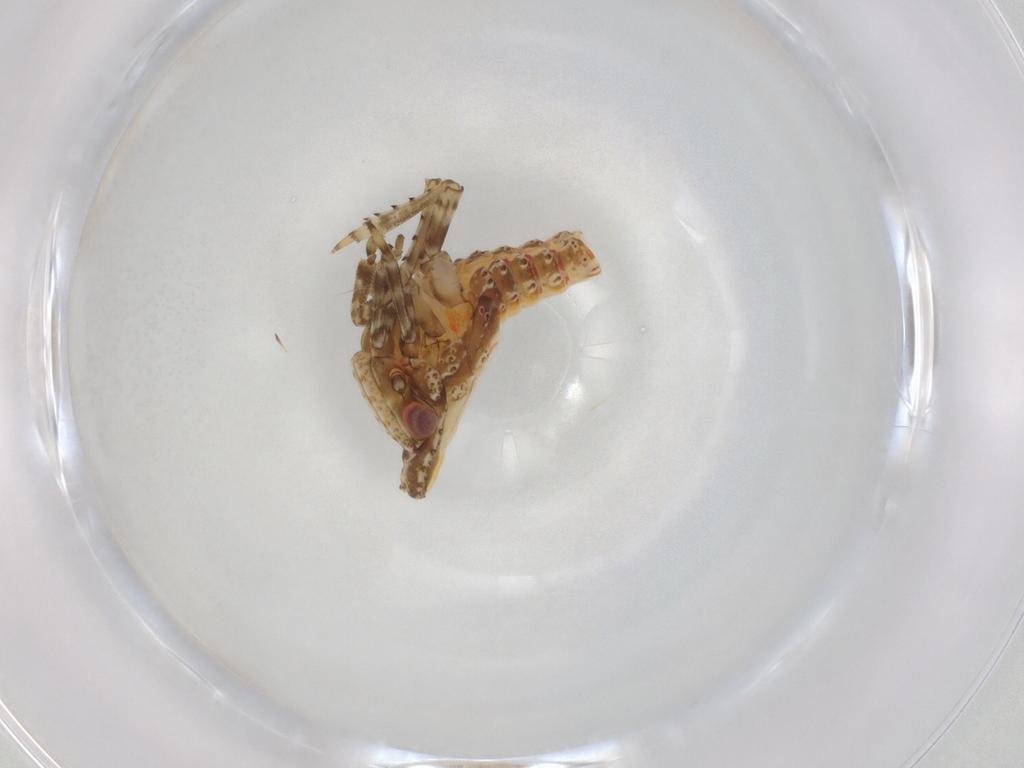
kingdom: Animalia
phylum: Arthropoda
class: Insecta
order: Hemiptera
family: Fulgoroidea_incertae_sedis
